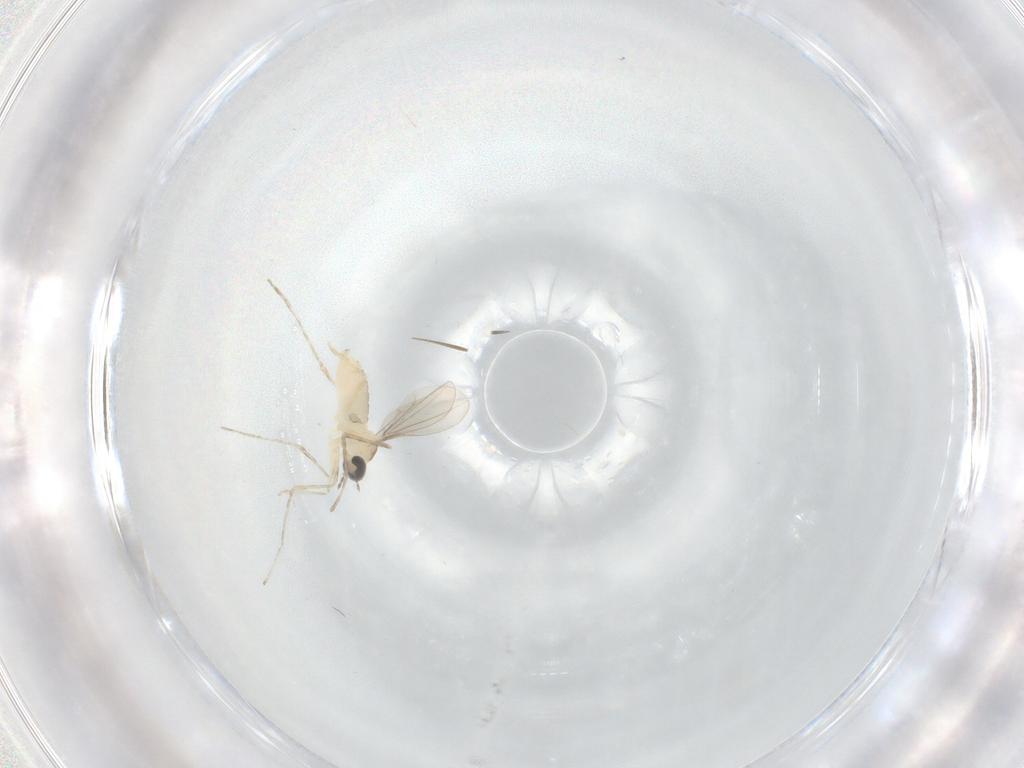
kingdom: Animalia
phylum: Arthropoda
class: Insecta
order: Diptera
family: Cecidomyiidae
